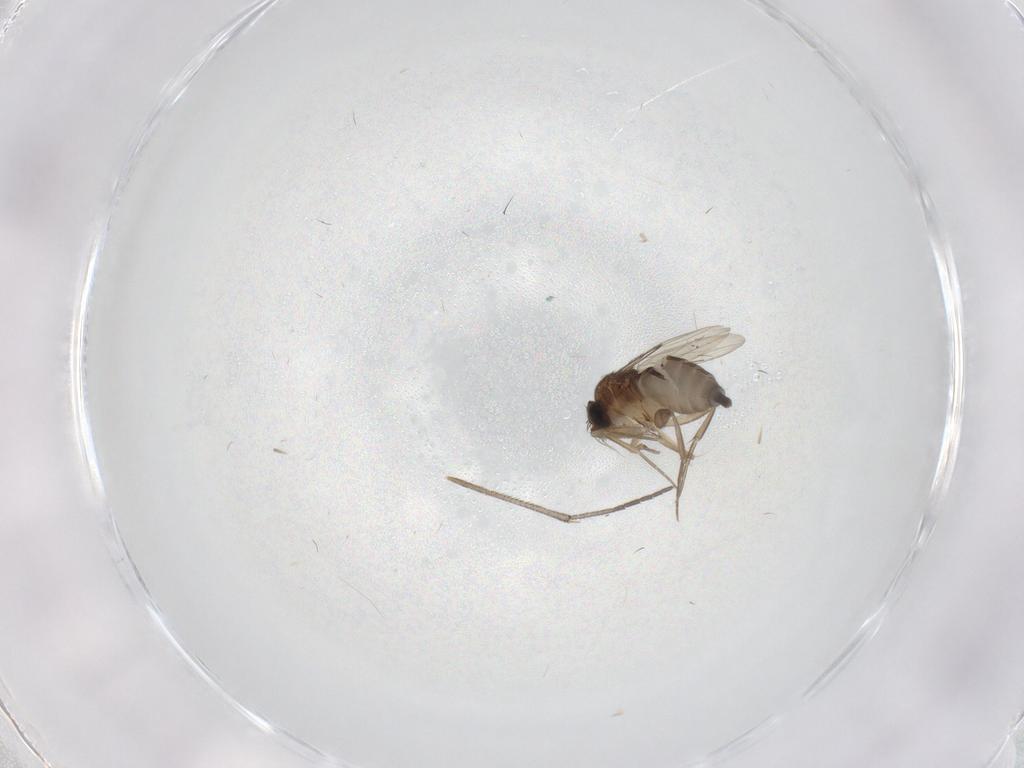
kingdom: Animalia
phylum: Arthropoda
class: Insecta
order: Diptera
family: Phoridae
